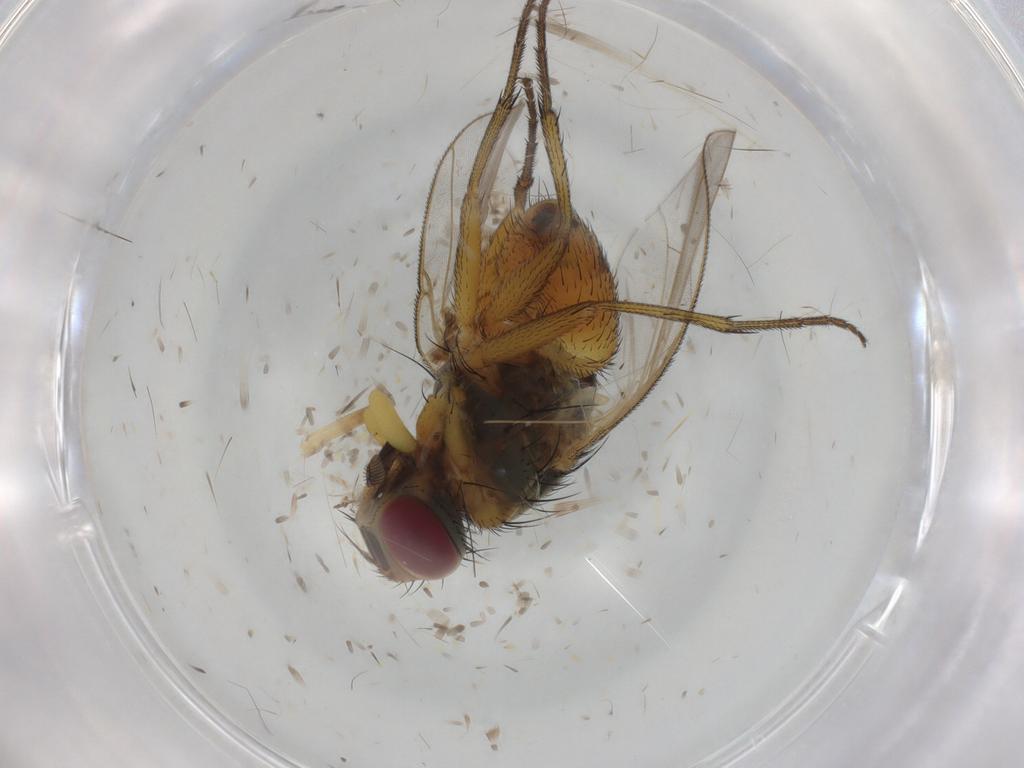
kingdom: Animalia
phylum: Arthropoda
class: Insecta
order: Diptera
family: Muscidae
